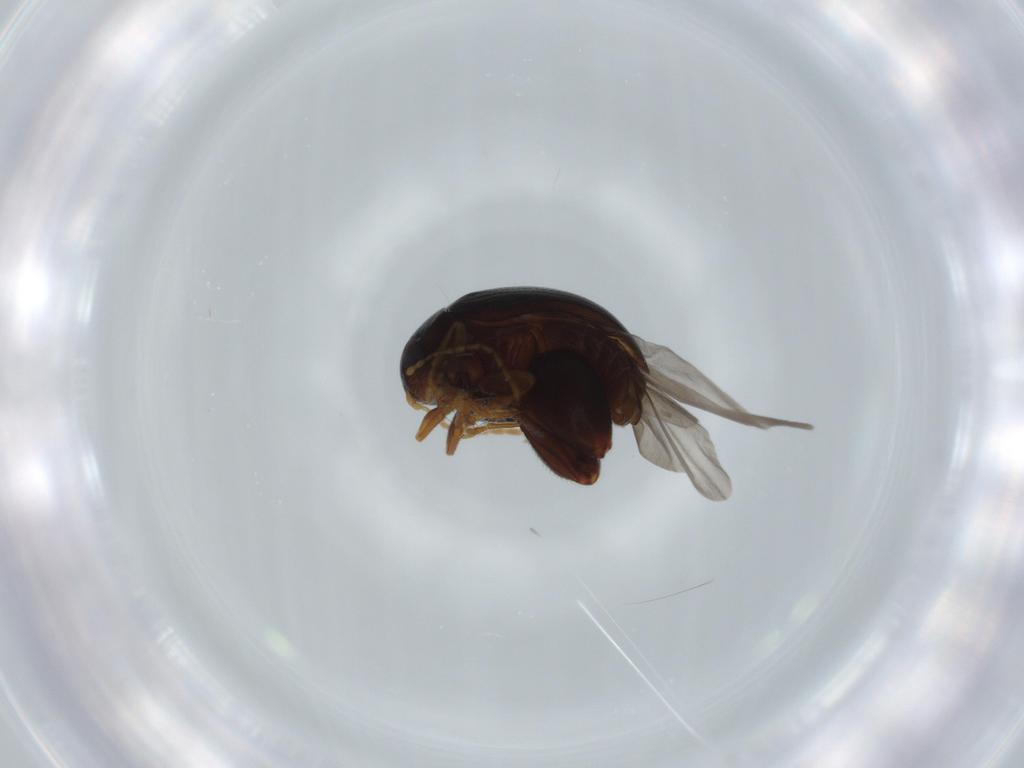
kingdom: Animalia
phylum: Arthropoda
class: Insecta
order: Coleoptera
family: Chrysomelidae
